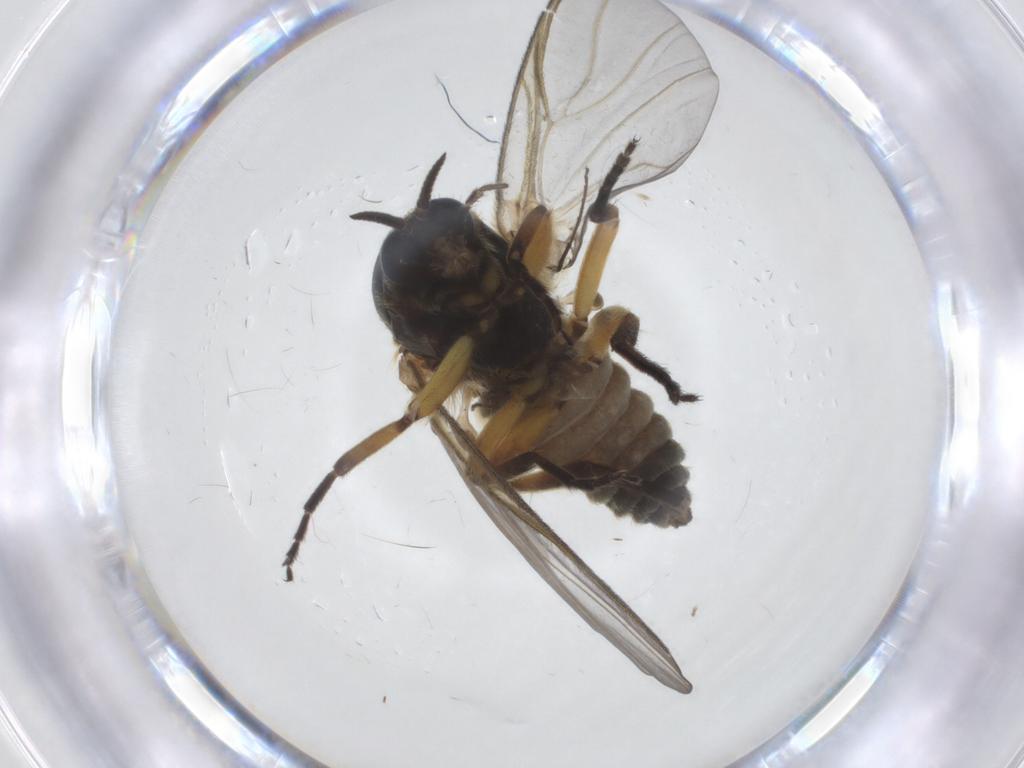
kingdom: Animalia
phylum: Arthropoda
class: Insecta
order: Diptera
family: Simuliidae
